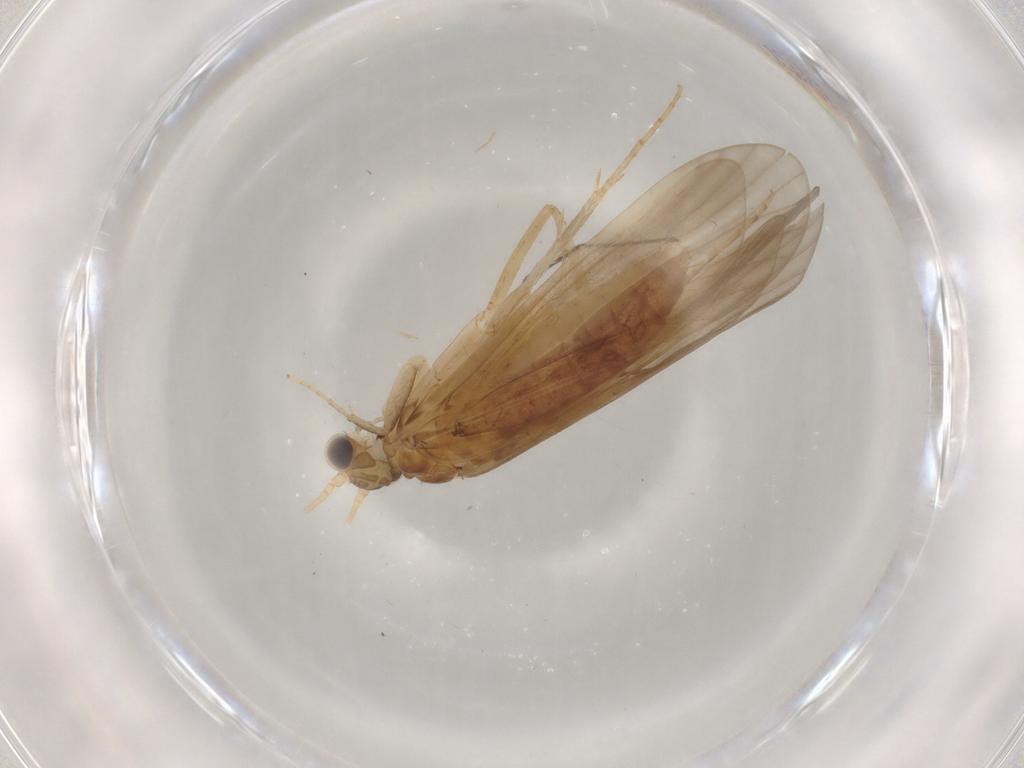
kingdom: Animalia
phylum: Arthropoda
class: Insecta
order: Trichoptera
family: Ecnomidae
